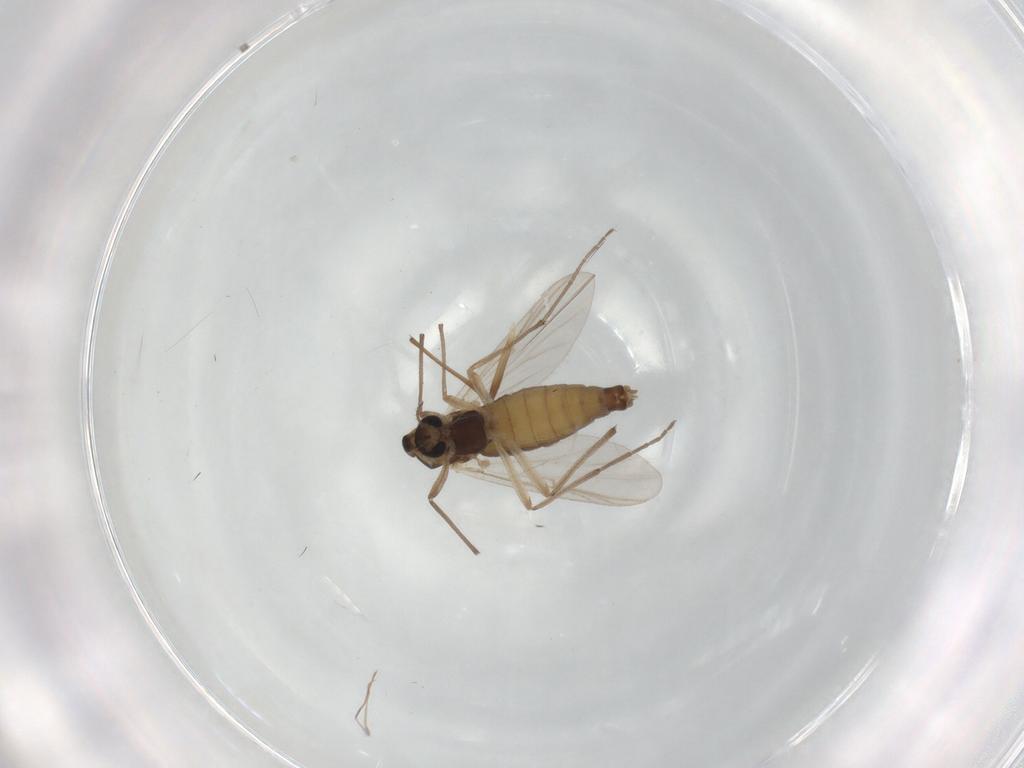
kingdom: Animalia
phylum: Arthropoda
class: Insecta
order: Diptera
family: Chironomidae
